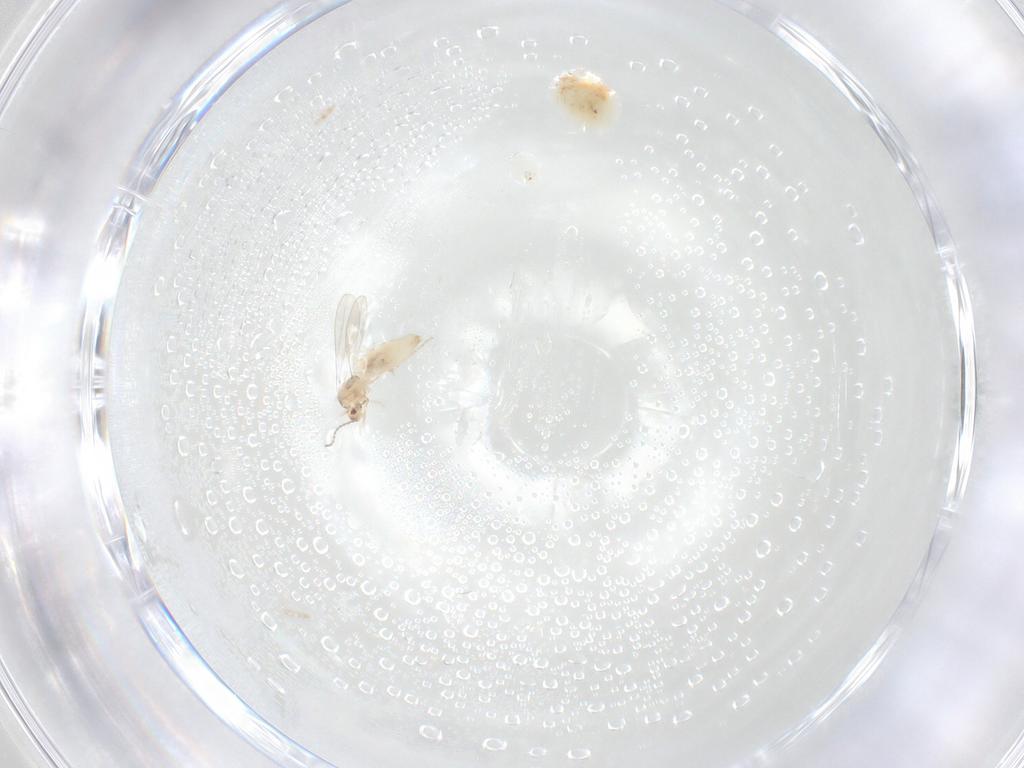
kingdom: Animalia
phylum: Arthropoda
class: Insecta
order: Diptera
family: Cecidomyiidae
